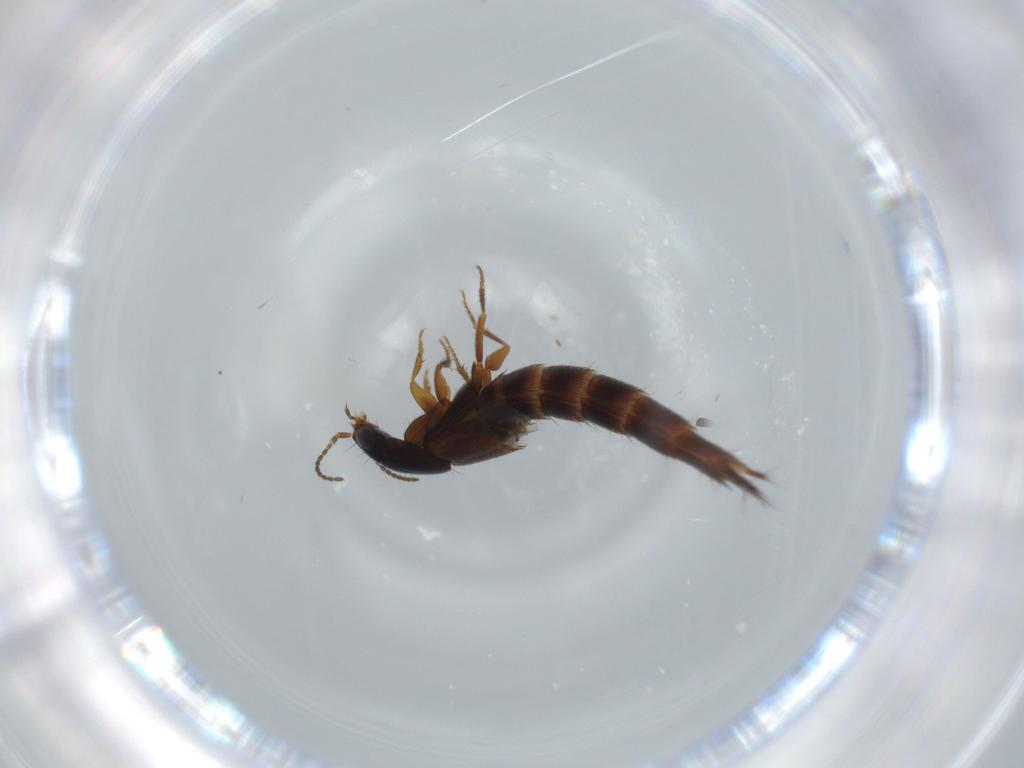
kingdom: Animalia
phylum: Arthropoda
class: Insecta
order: Coleoptera
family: Staphylinidae
